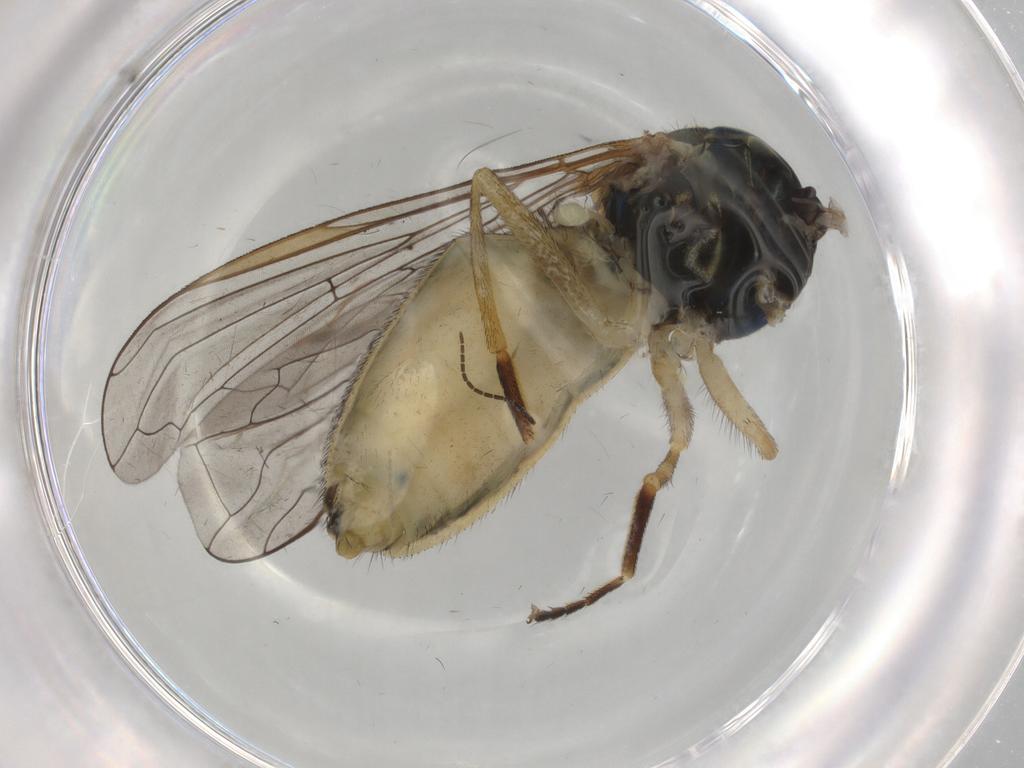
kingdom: Animalia
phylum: Arthropoda
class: Insecta
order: Diptera
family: Syrphidae
